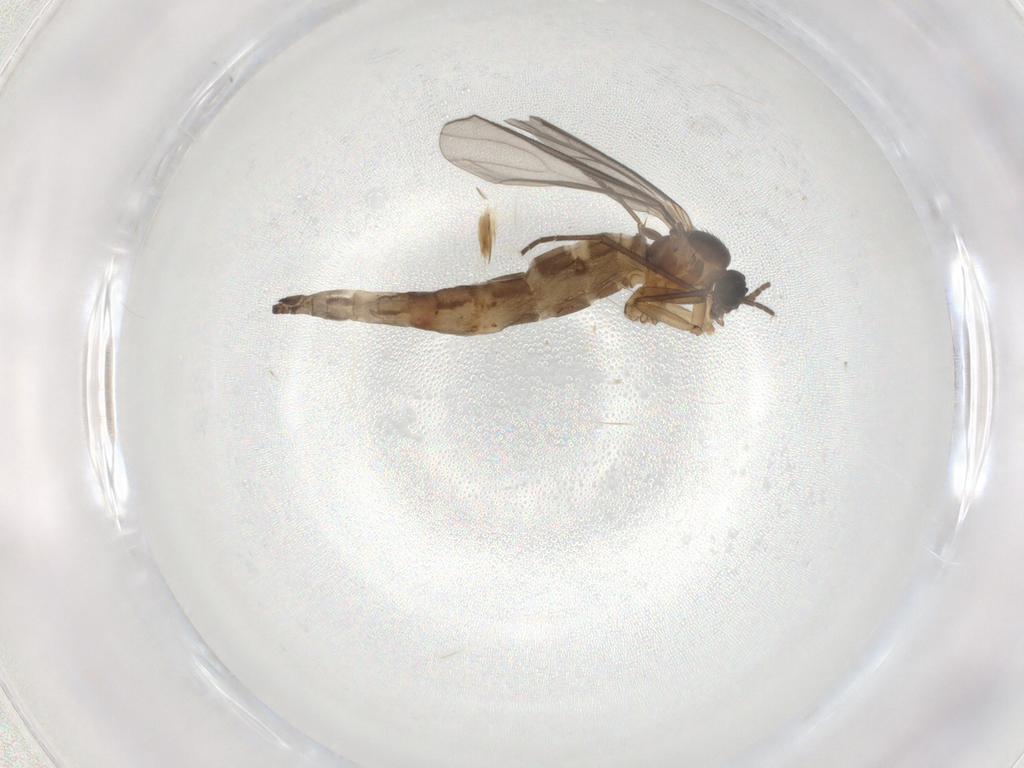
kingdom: Animalia
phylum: Arthropoda
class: Insecta
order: Diptera
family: Sciaridae
